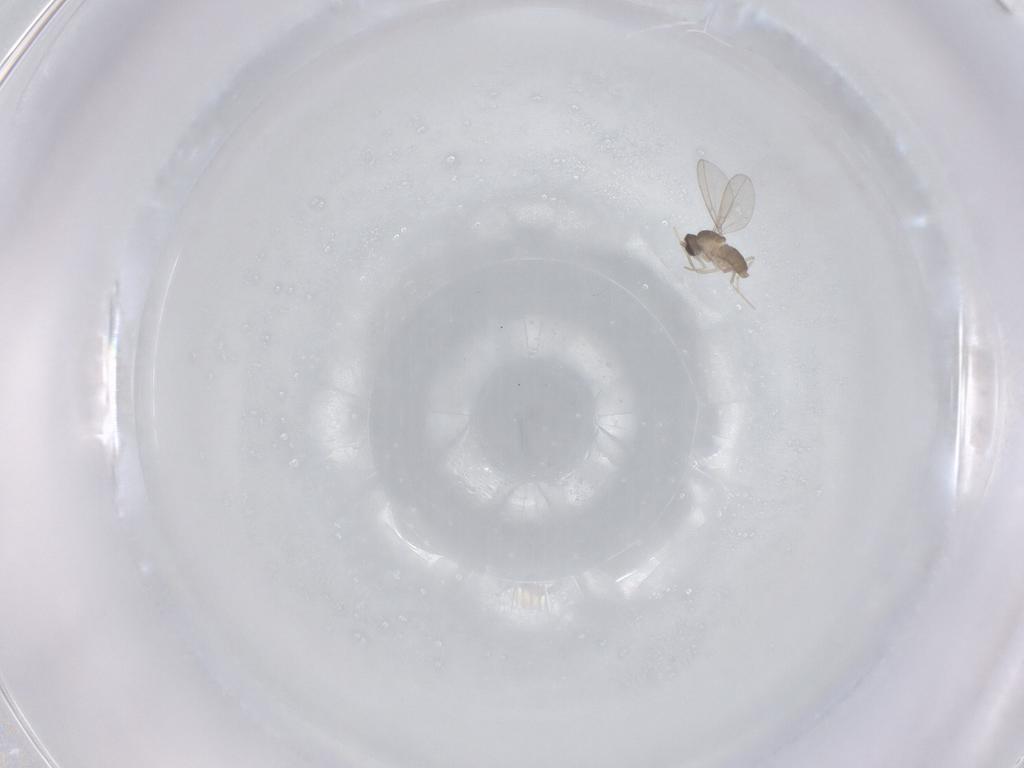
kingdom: Animalia
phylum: Arthropoda
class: Insecta
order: Diptera
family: Cecidomyiidae
